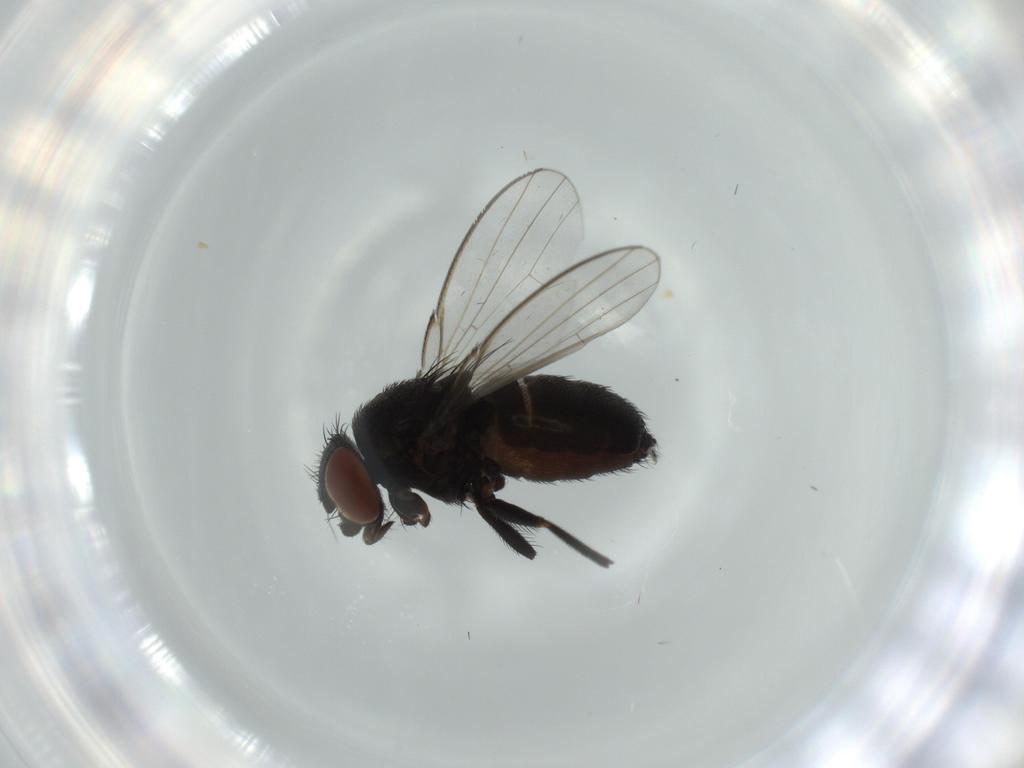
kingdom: Animalia
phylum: Arthropoda
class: Insecta
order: Diptera
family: Milichiidae
